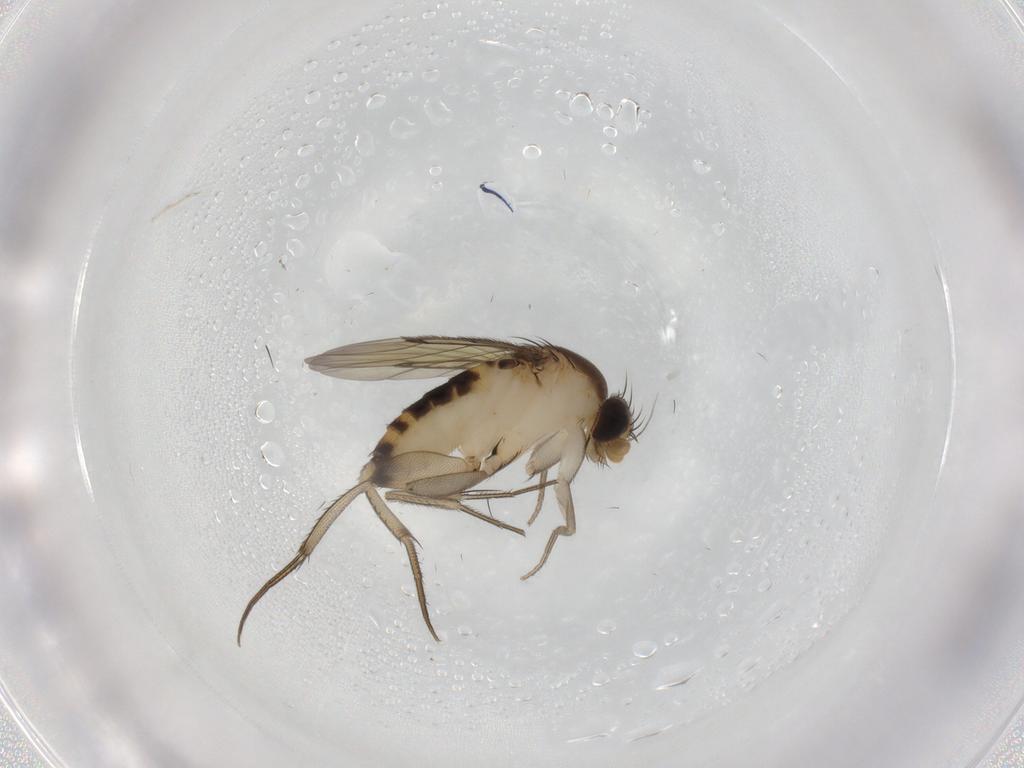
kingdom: Animalia
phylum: Arthropoda
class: Insecta
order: Diptera
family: Phoridae
